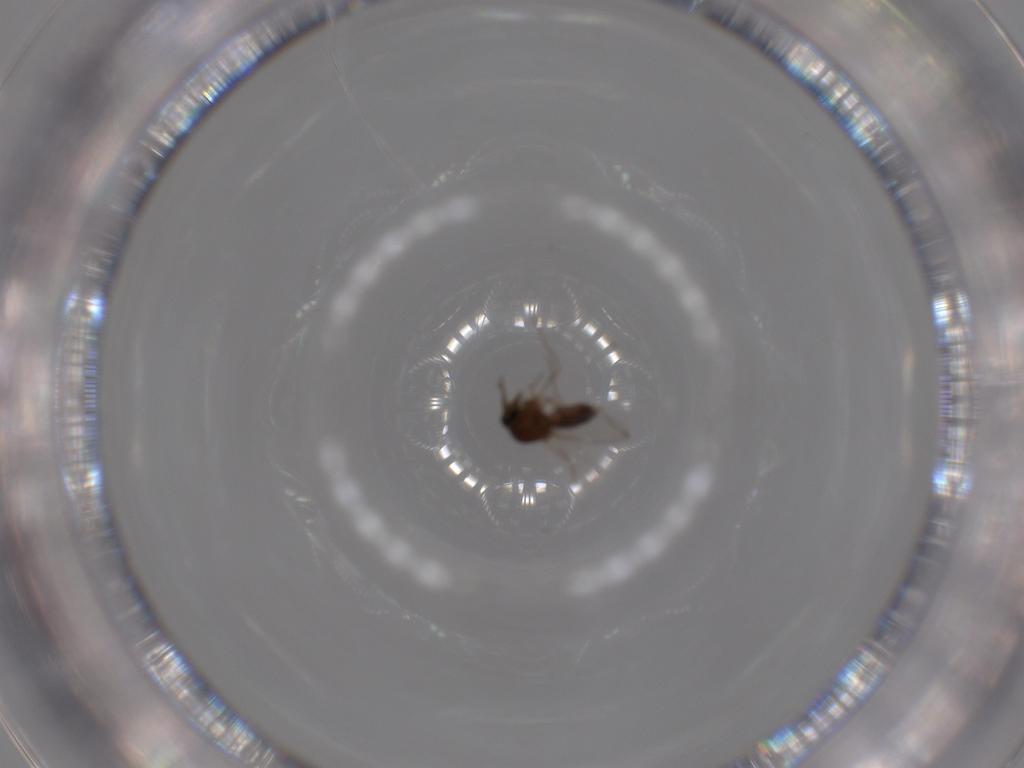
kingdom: Animalia
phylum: Arthropoda
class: Insecta
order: Diptera
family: Ceratopogonidae
